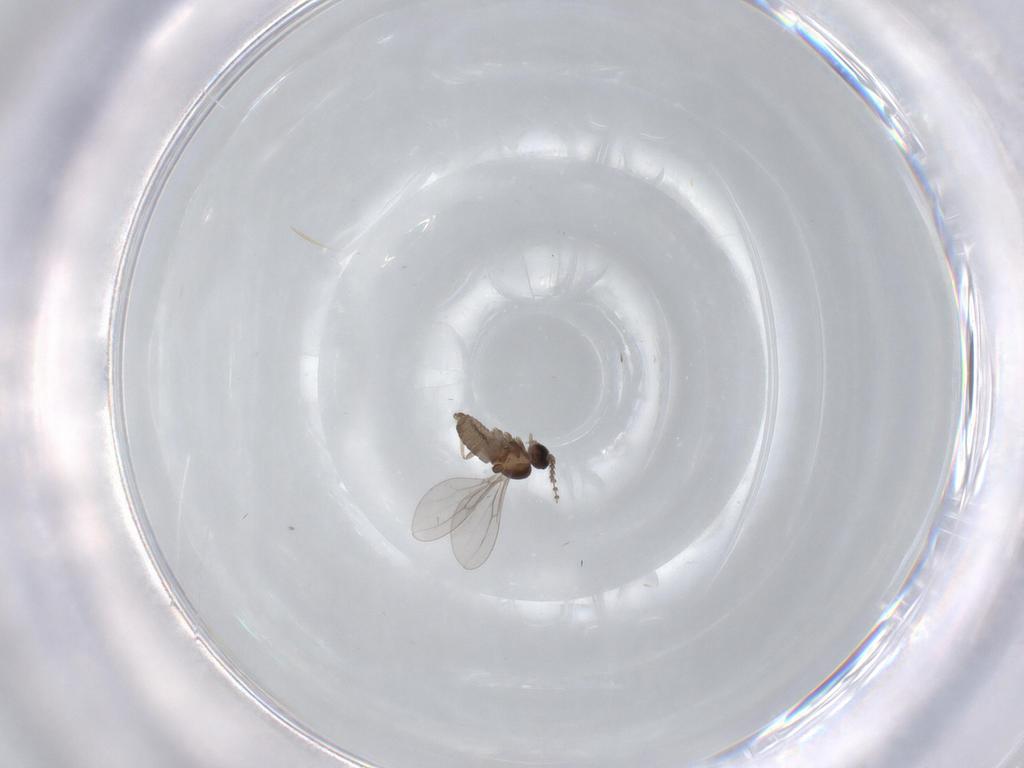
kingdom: Animalia
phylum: Arthropoda
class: Insecta
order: Diptera
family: Cecidomyiidae
